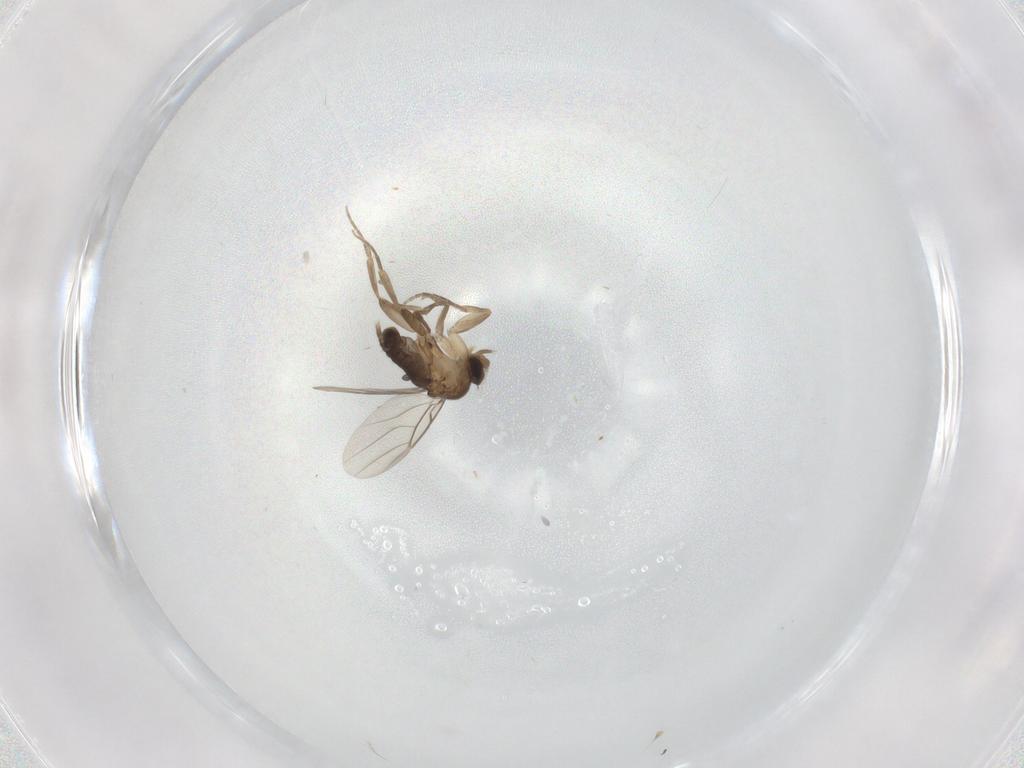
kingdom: Animalia
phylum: Arthropoda
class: Insecta
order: Diptera
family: Phoridae
